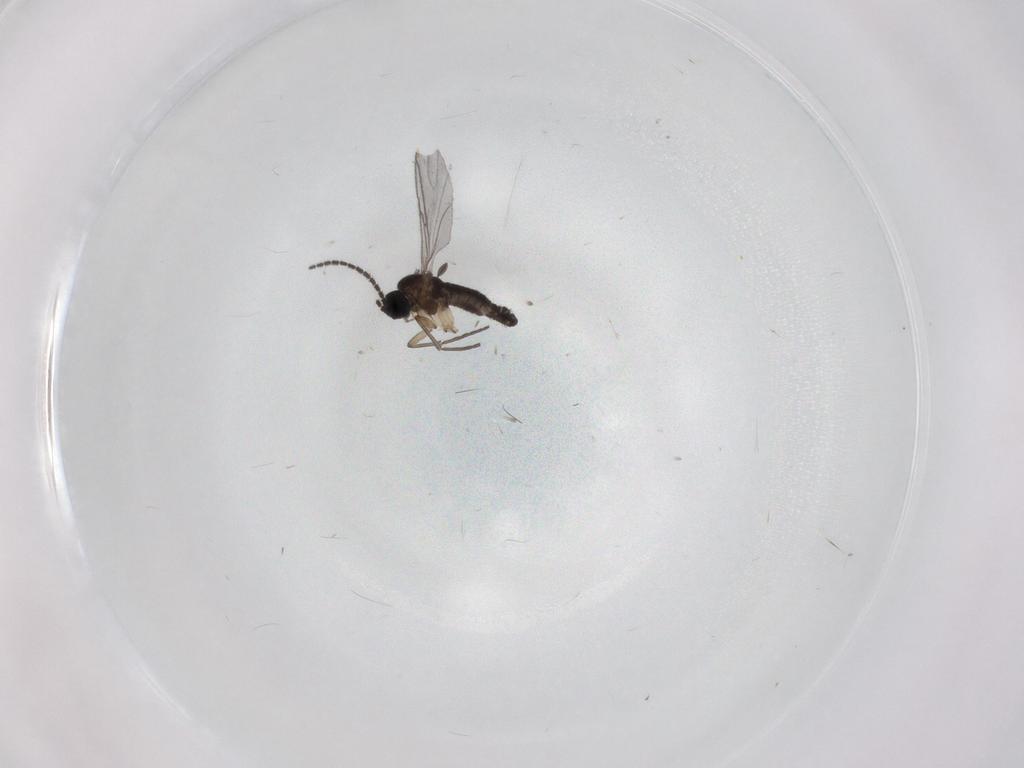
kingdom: Animalia
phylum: Arthropoda
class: Insecta
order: Diptera
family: Sciaridae
